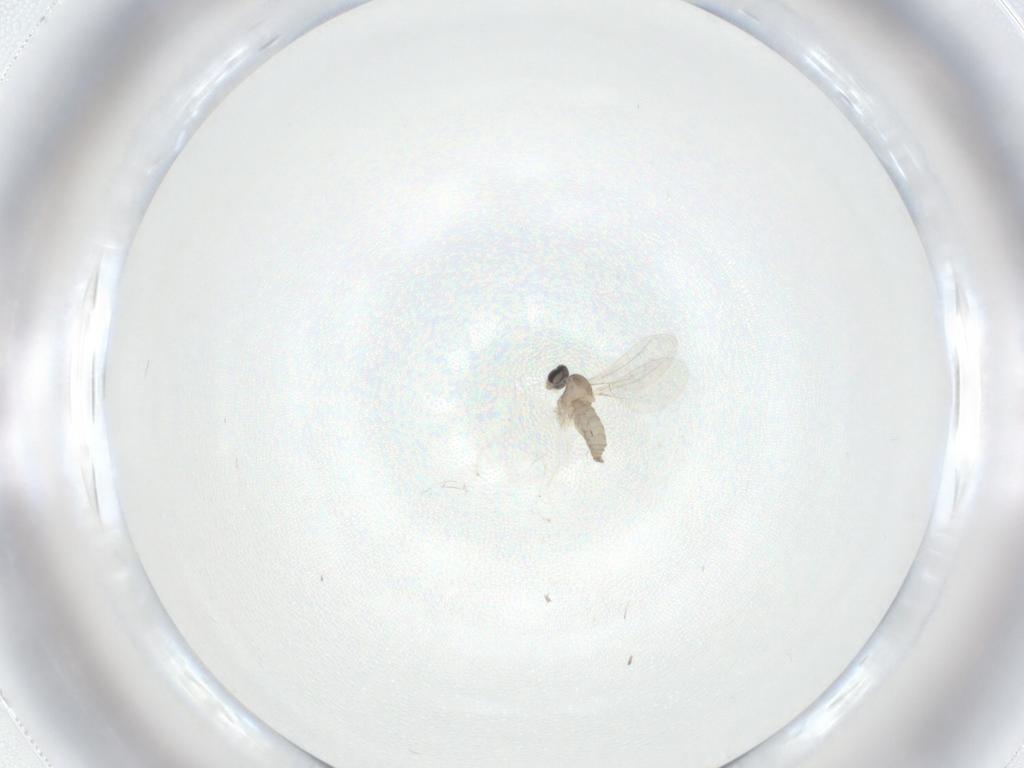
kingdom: Animalia
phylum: Arthropoda
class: Insecta
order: Diptera
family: Cecidomyiidae
